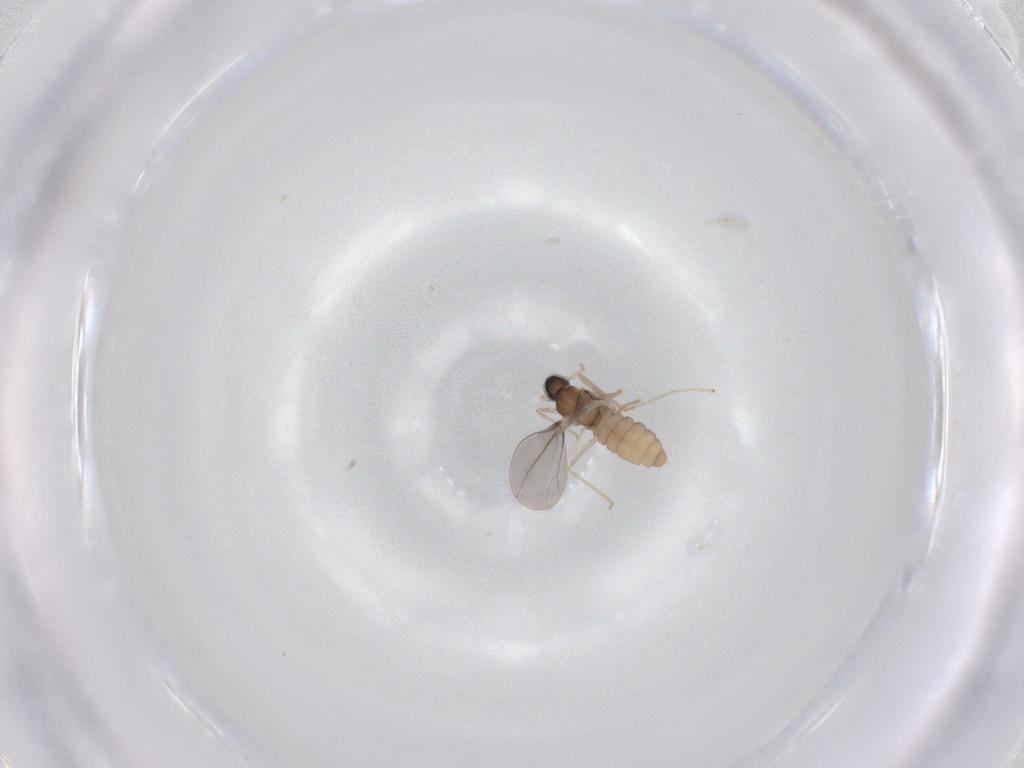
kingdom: Animalia
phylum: Arthropoda
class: Insecta
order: Diptera
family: Cecidomyiidae
